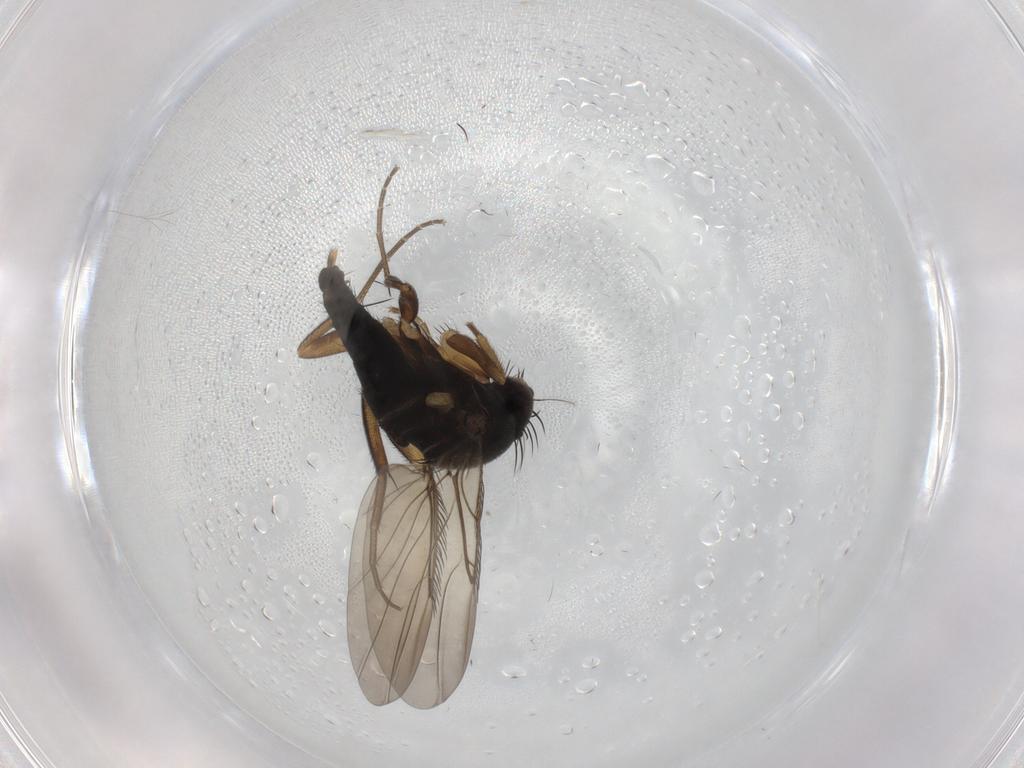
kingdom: Animalia
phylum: Arthropoda
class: Insecta
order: Diptera
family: Phoridae
